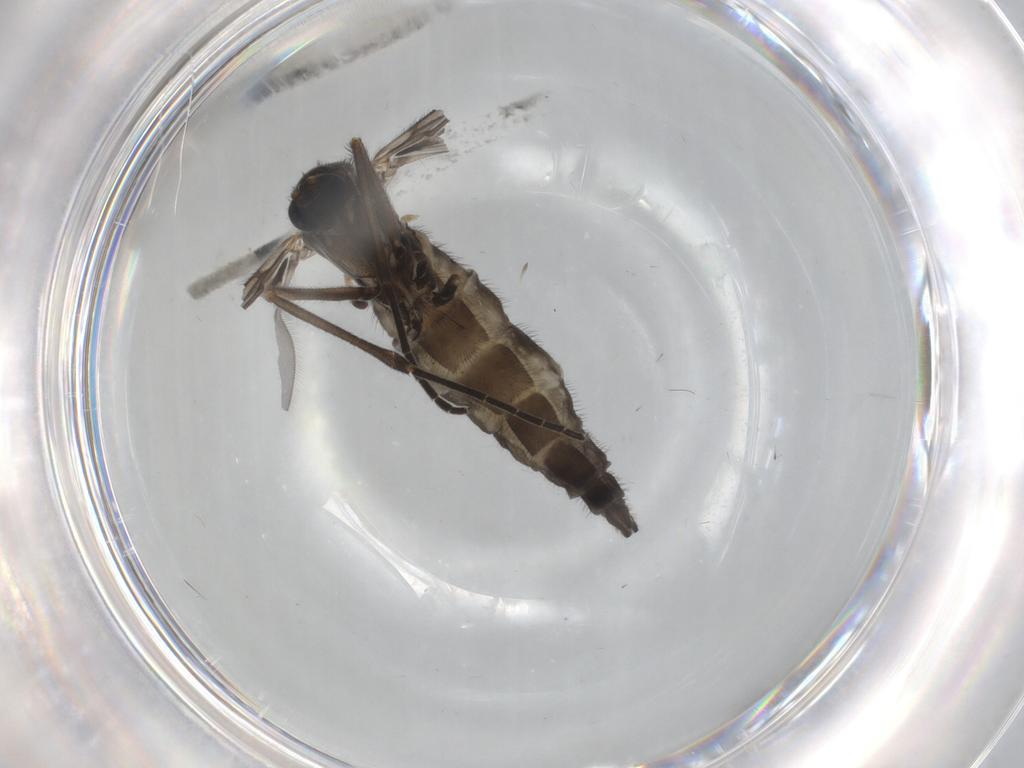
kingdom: Animalia
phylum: Arthropoda
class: Insecta
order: Diptera
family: Sciaridae
